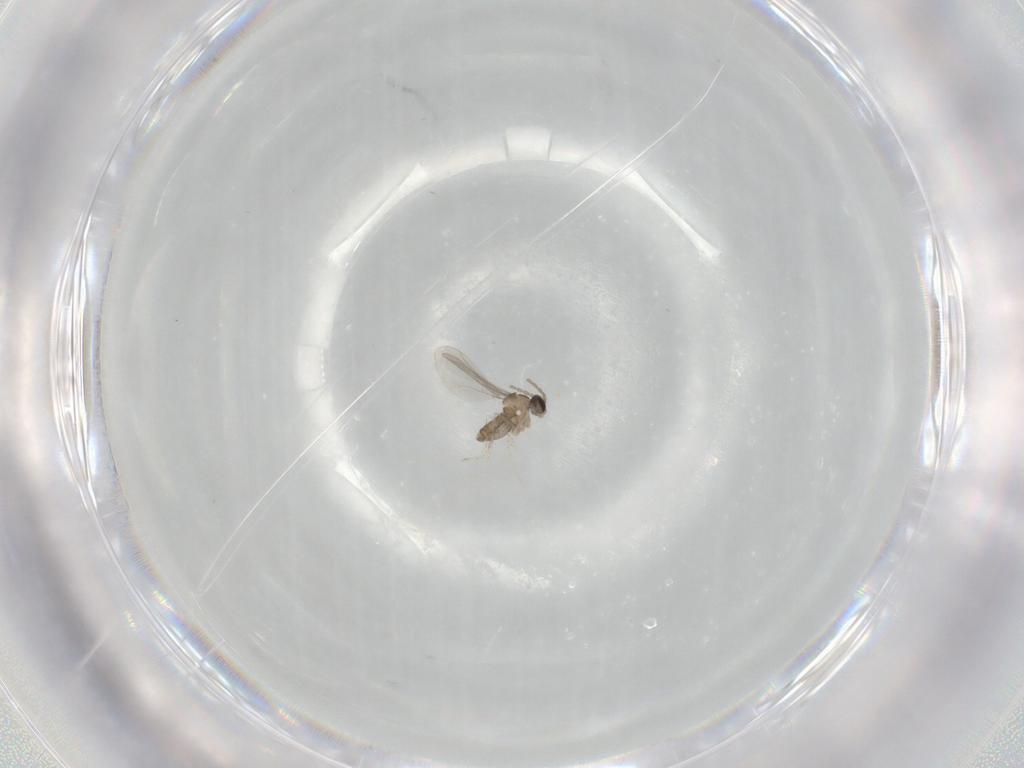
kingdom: Animalia
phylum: Arthropoda
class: Insecta
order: Diptera
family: Cecidomyiidae
